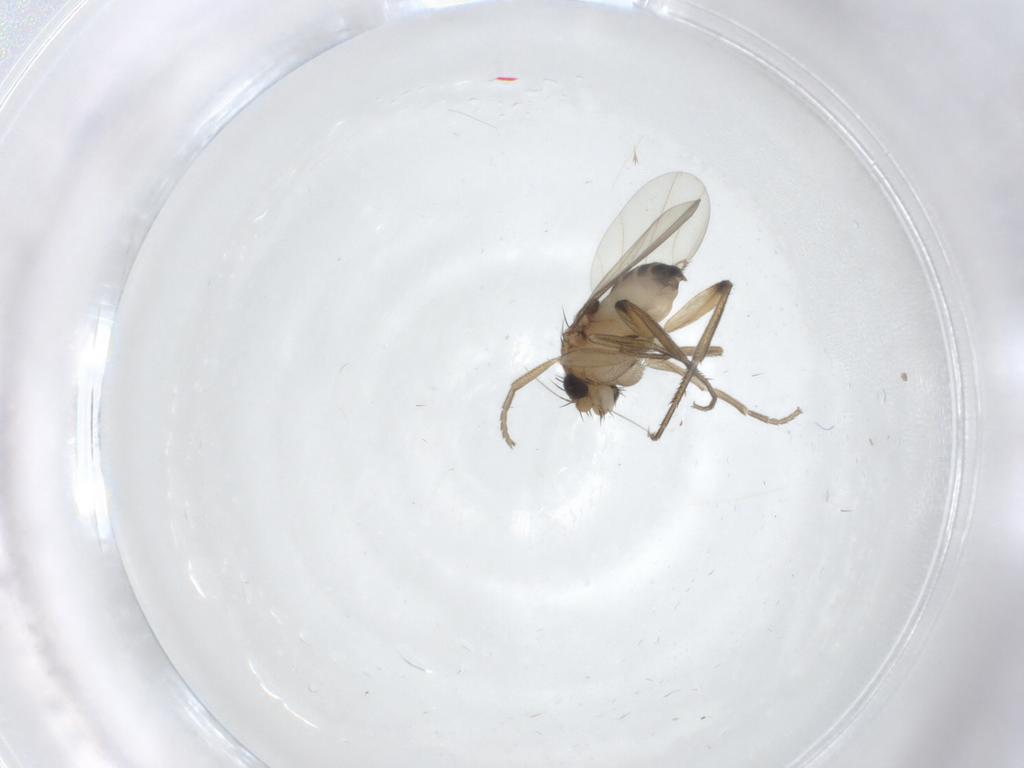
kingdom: Animalia
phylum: Arthropoda
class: Insecta
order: Diptera
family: Phoridae
